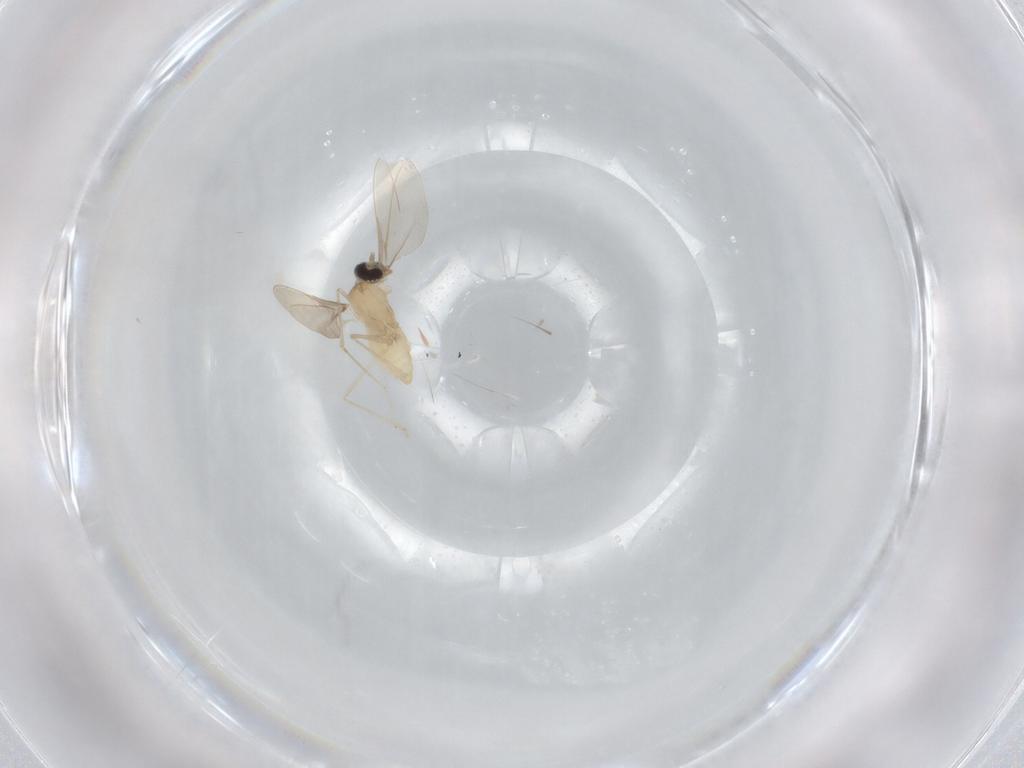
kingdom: Animalia
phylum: Arthropoda
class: Insecta
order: Diptera
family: Cecidomyiidae
